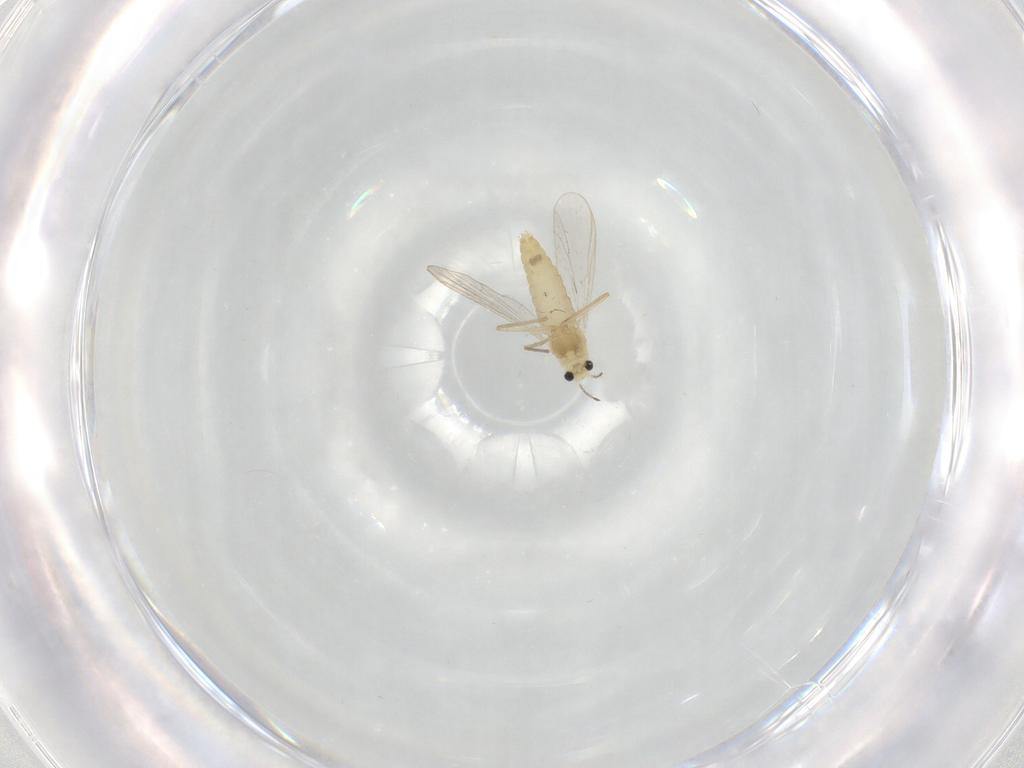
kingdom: Animalia
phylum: Arthropoda
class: Insecta
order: Diptera
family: Chironomidae
